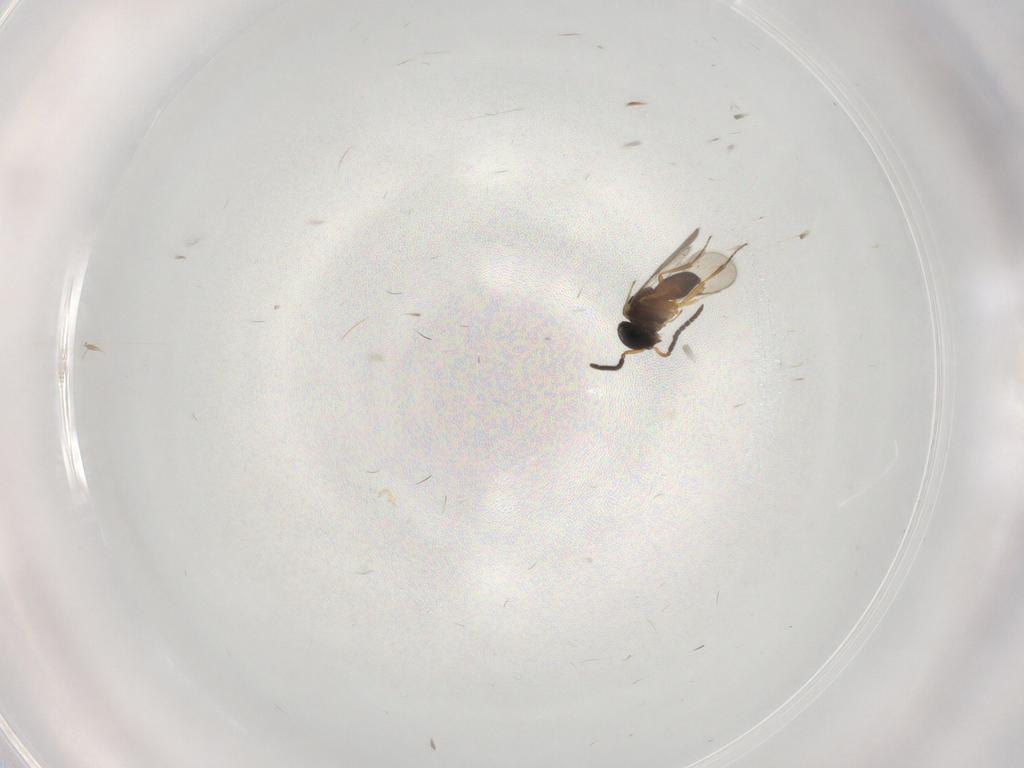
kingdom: Animalia
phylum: Arthropoda
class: Insecta
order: Hymenoptera
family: Scelionidae
